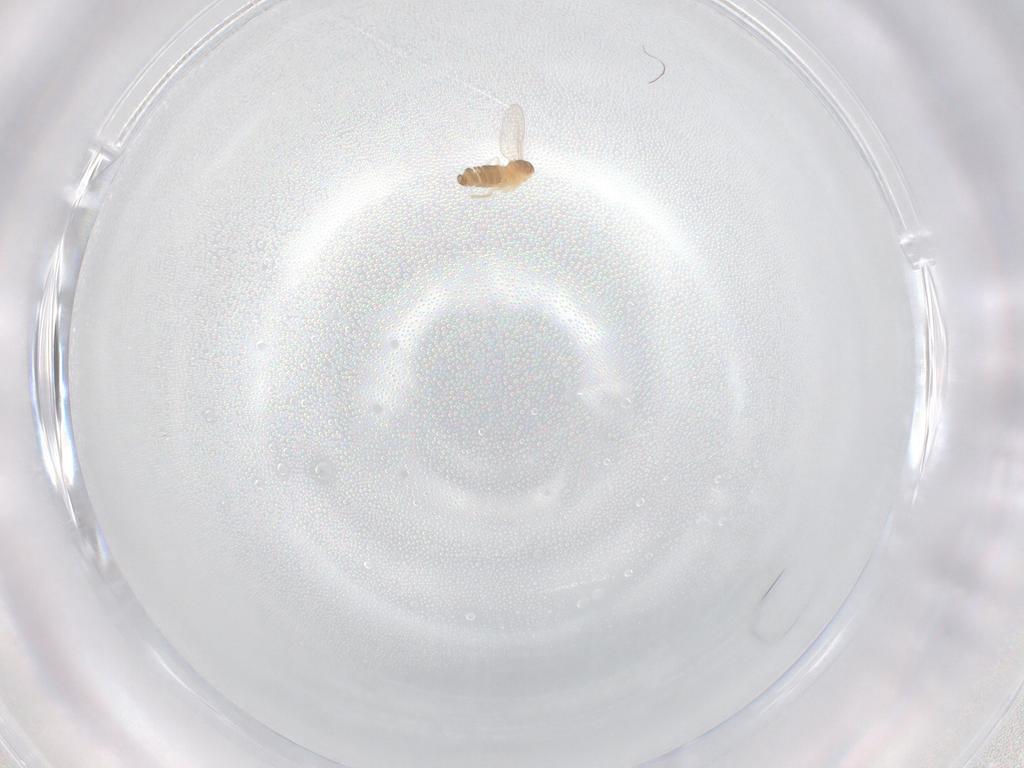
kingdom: Animalia
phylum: Arthropoda
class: Insecta
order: Diptera
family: Cecidomyiidae
